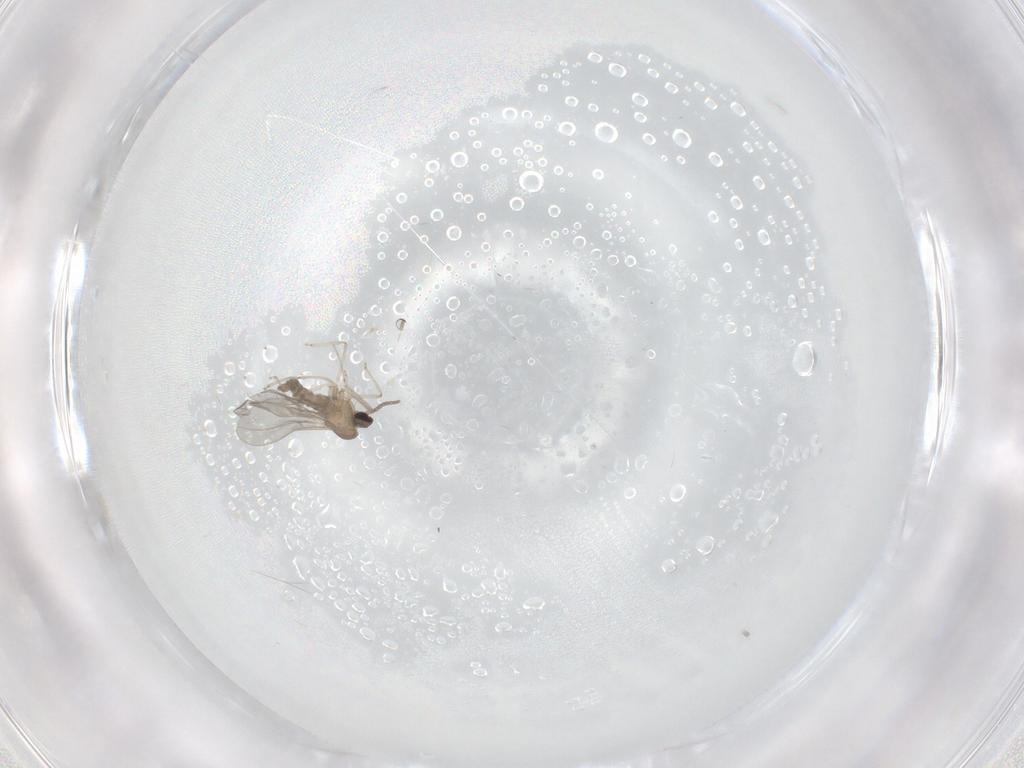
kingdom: Animalia
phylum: Arthropoda
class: Insecta
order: Diptera
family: Cecidomyiidae
